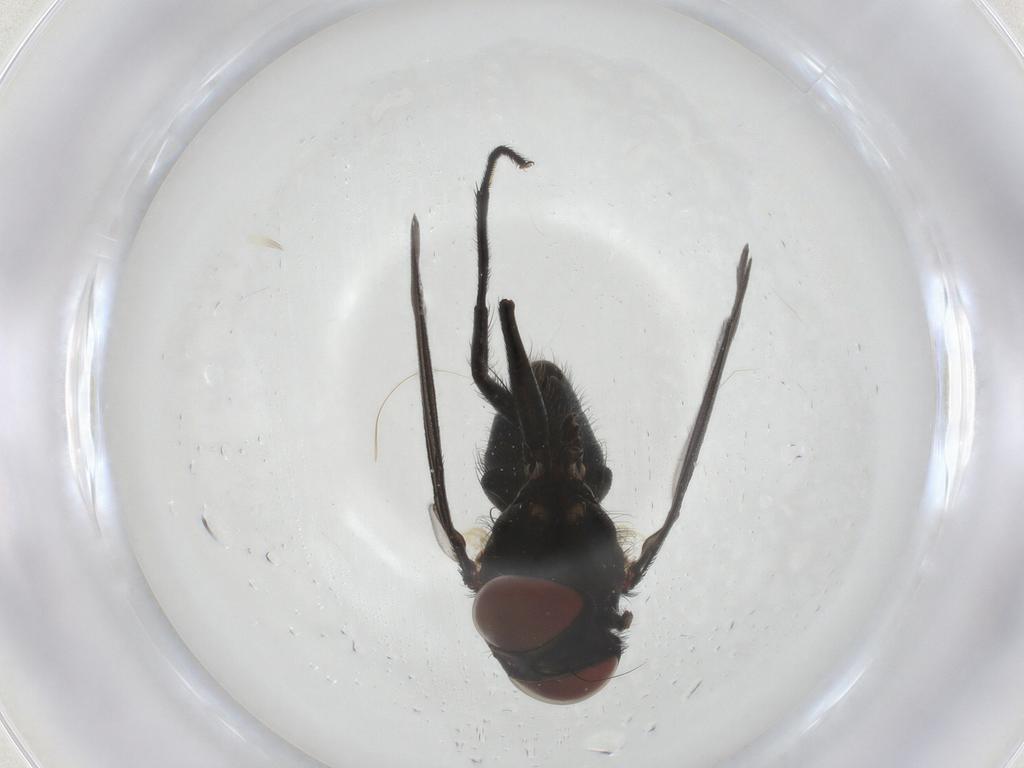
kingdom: Animalia
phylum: Arthropoda
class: Insecta
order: Diptera
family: Muscidae
